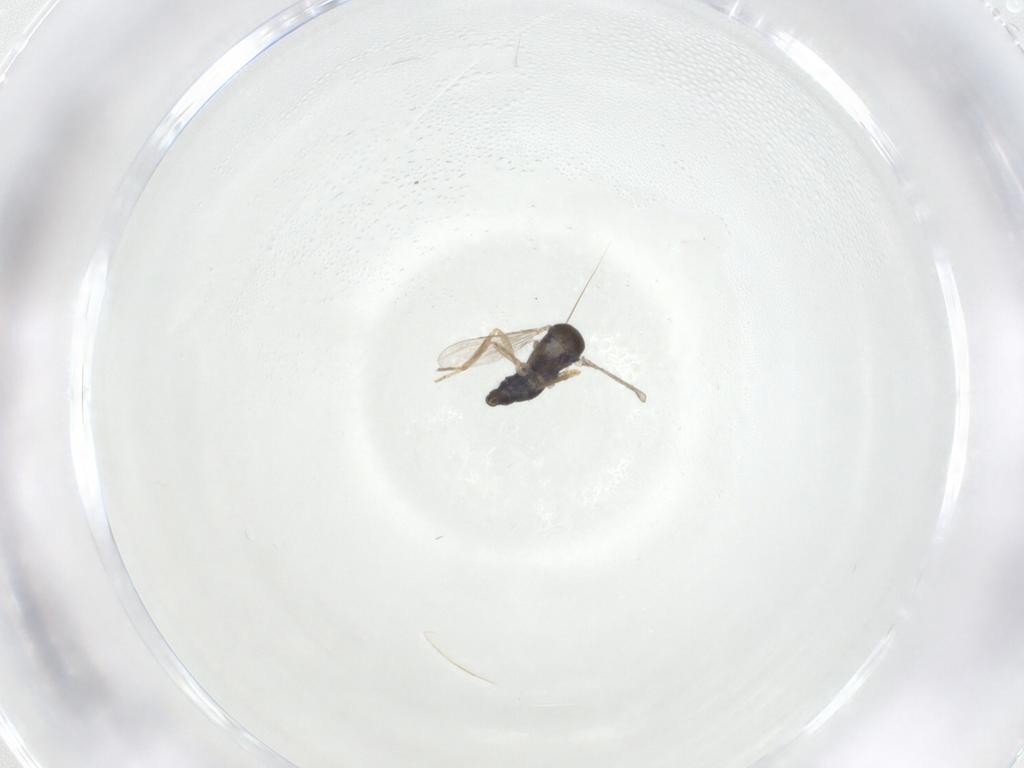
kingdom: Animalia
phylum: Arthropoda
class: Insecta
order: Diptera
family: Ceratopogonidae
